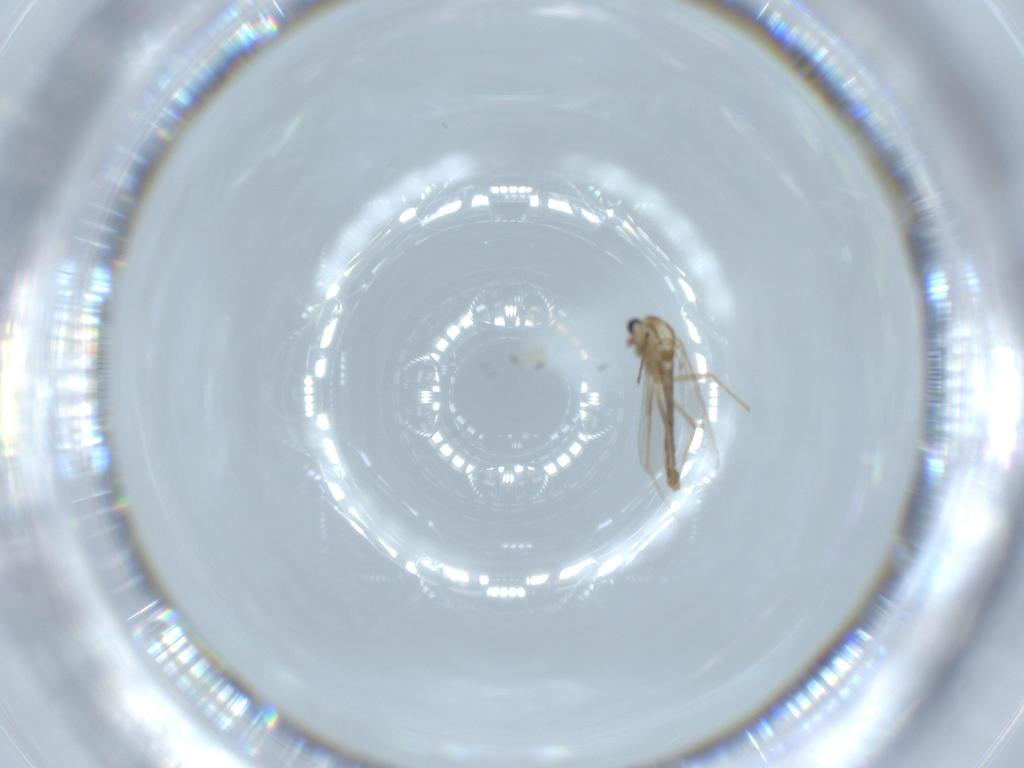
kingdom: Animalia
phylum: Arthropoda
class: Insecta
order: Diptera
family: Chironomidae
